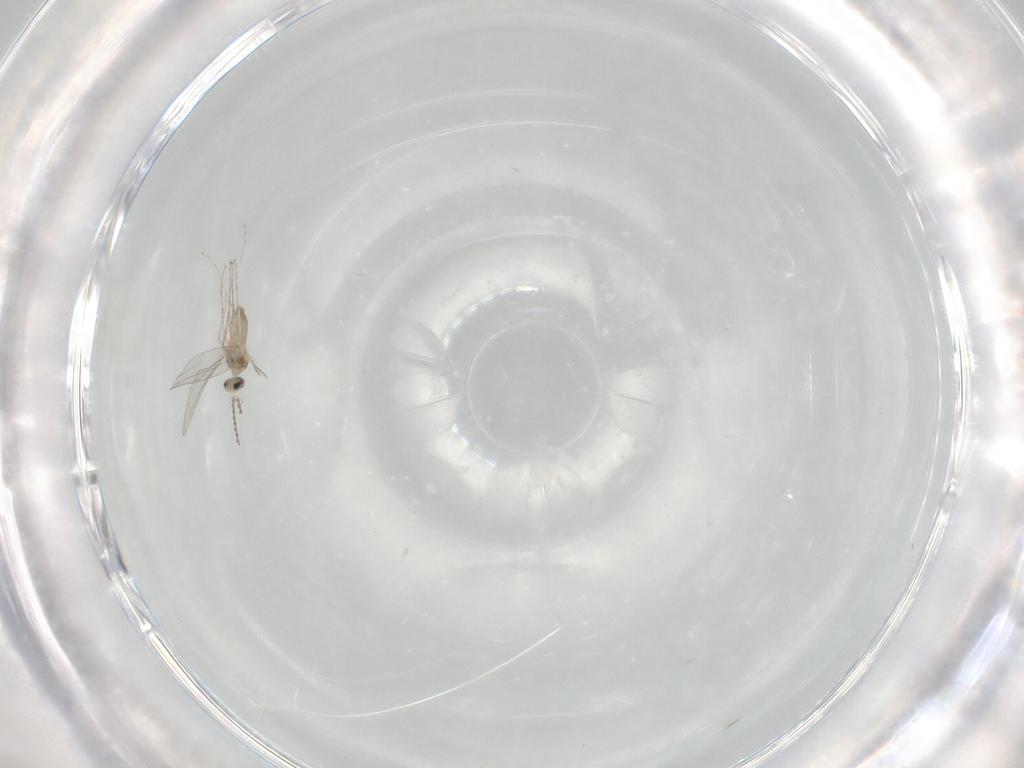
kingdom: Animalia
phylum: Arthropoda
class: Insecta
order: Diptera
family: Cecidomyiidae
